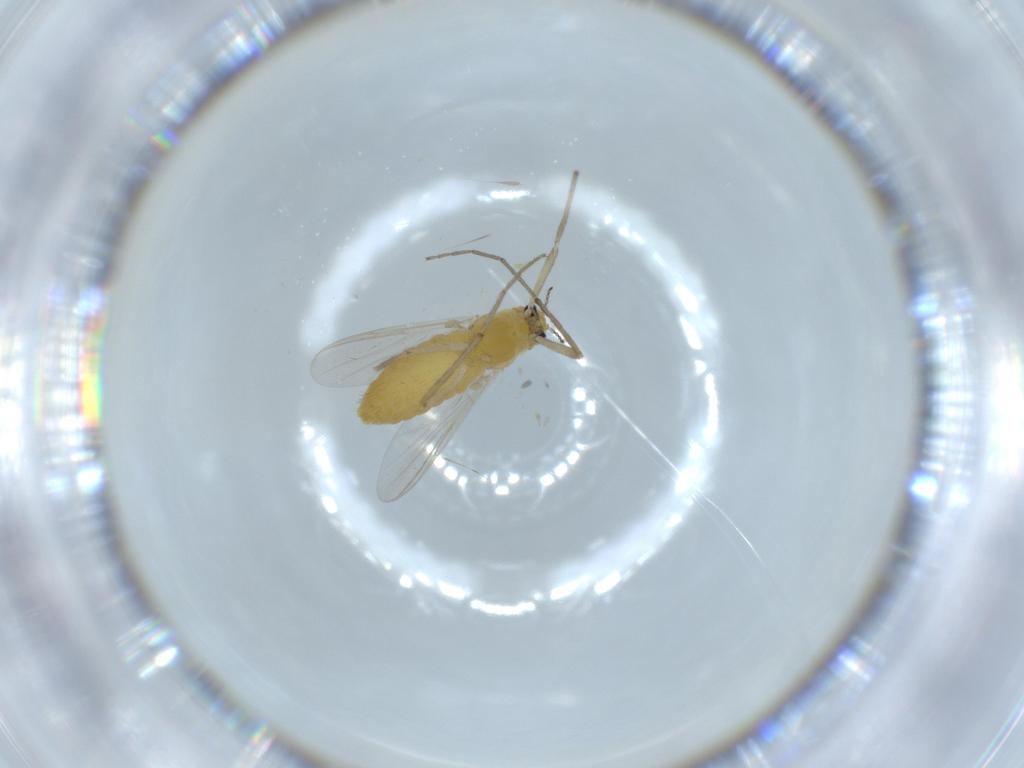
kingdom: Animalia
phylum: Arthropoda
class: Insecta
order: Diptera
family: Chironomidae
